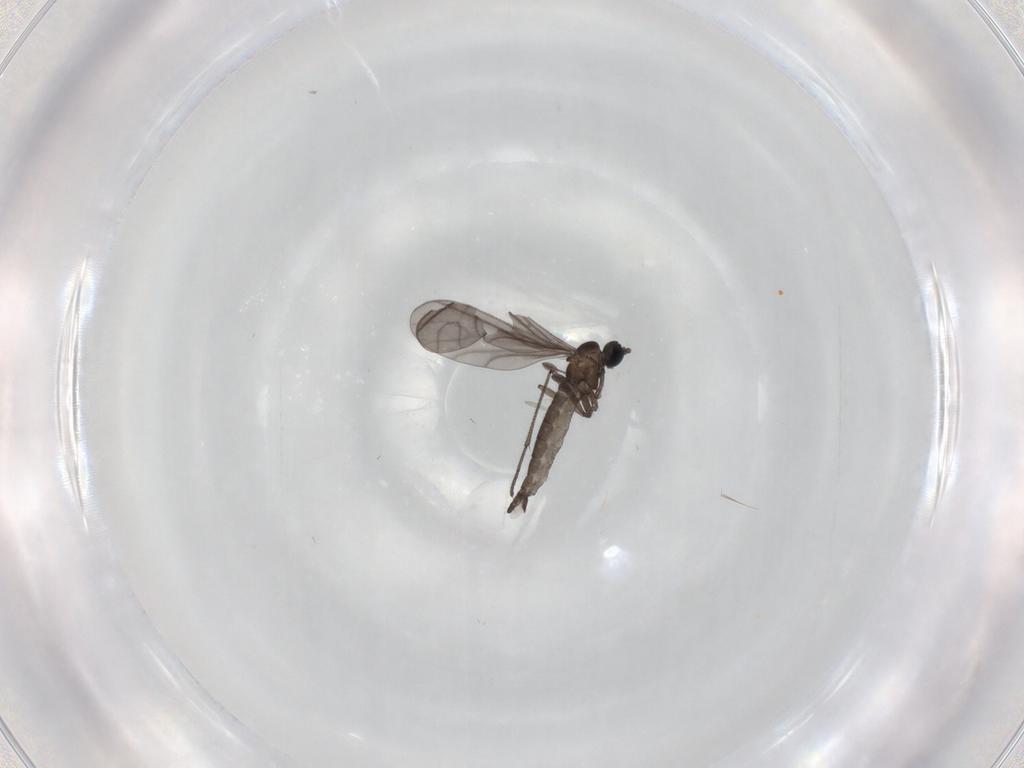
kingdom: Animalia
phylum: Arthropoda
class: Insecta
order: Diptera
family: Sciaridae
